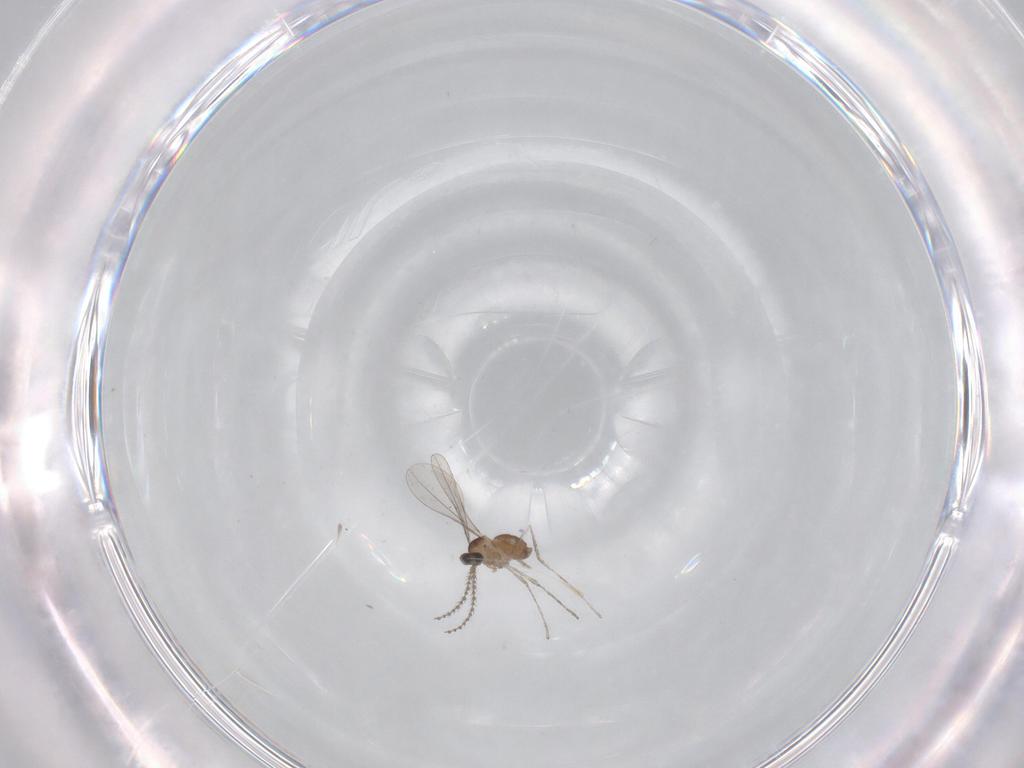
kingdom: Animalia
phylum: Arthropoda
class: Insecta
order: Diptera
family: Cecidomyiidae
